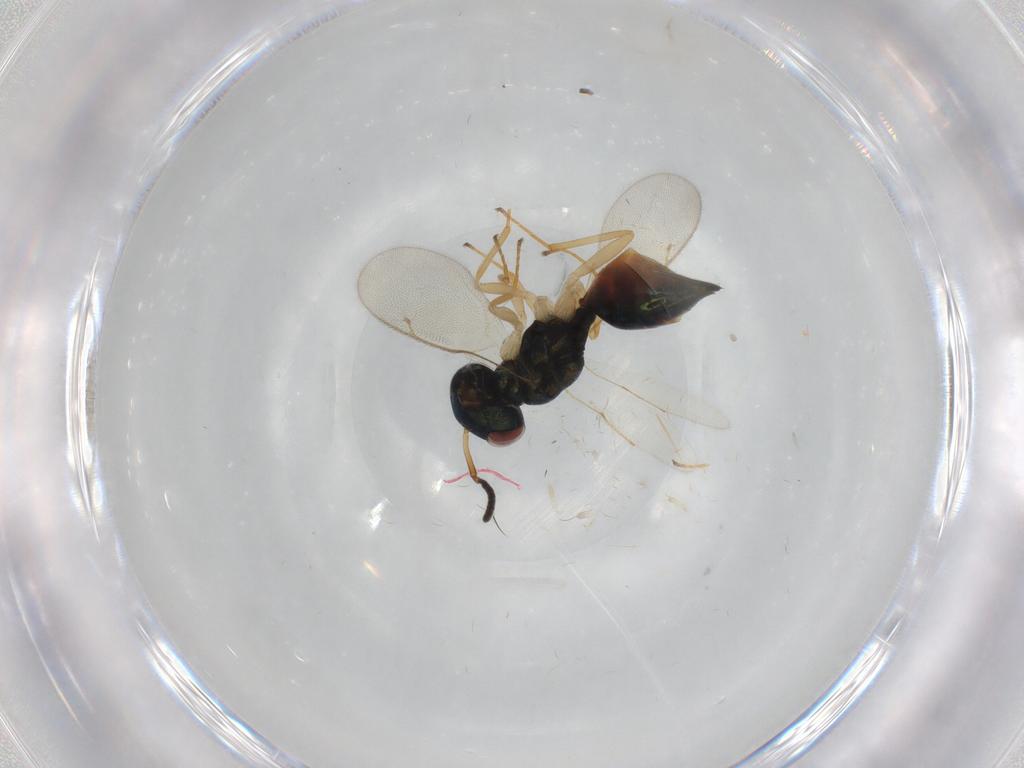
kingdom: Animalia
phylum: Arthropoda
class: Insecta
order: Hymenoptera
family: Pteromalidae
